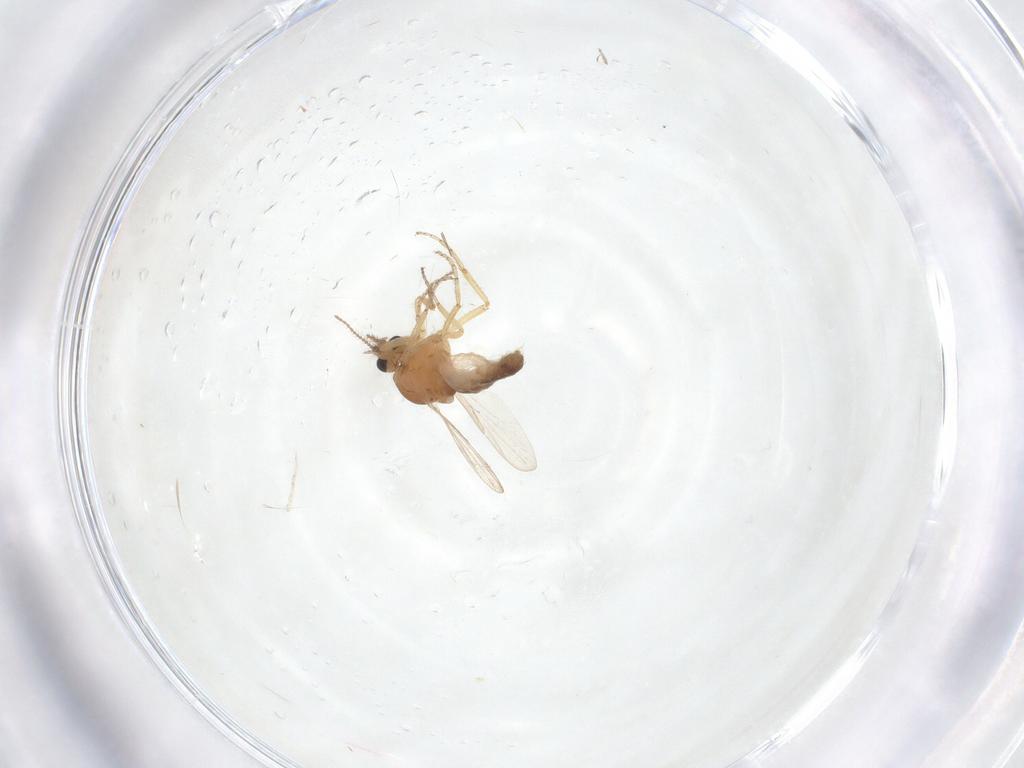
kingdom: Animalia
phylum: Arthropoda
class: Insecta
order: Diptera
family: Ceratopogonidae
